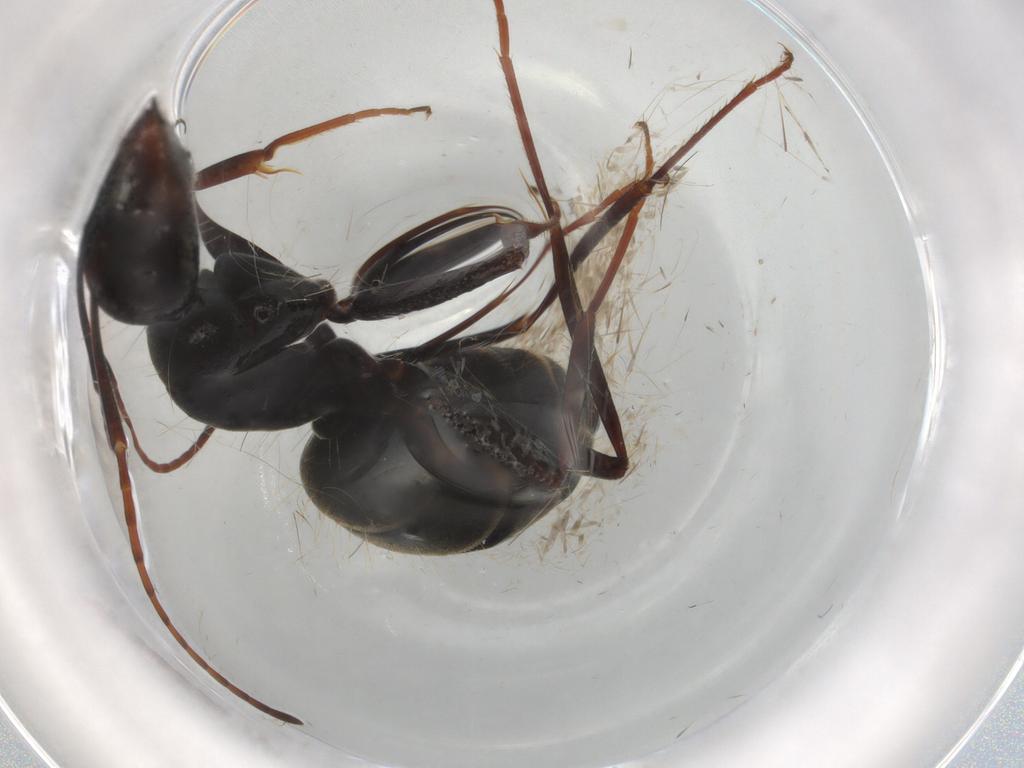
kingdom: Animalia
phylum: Arthropoda
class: Insecta
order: Hymenoptera
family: Formicidae
